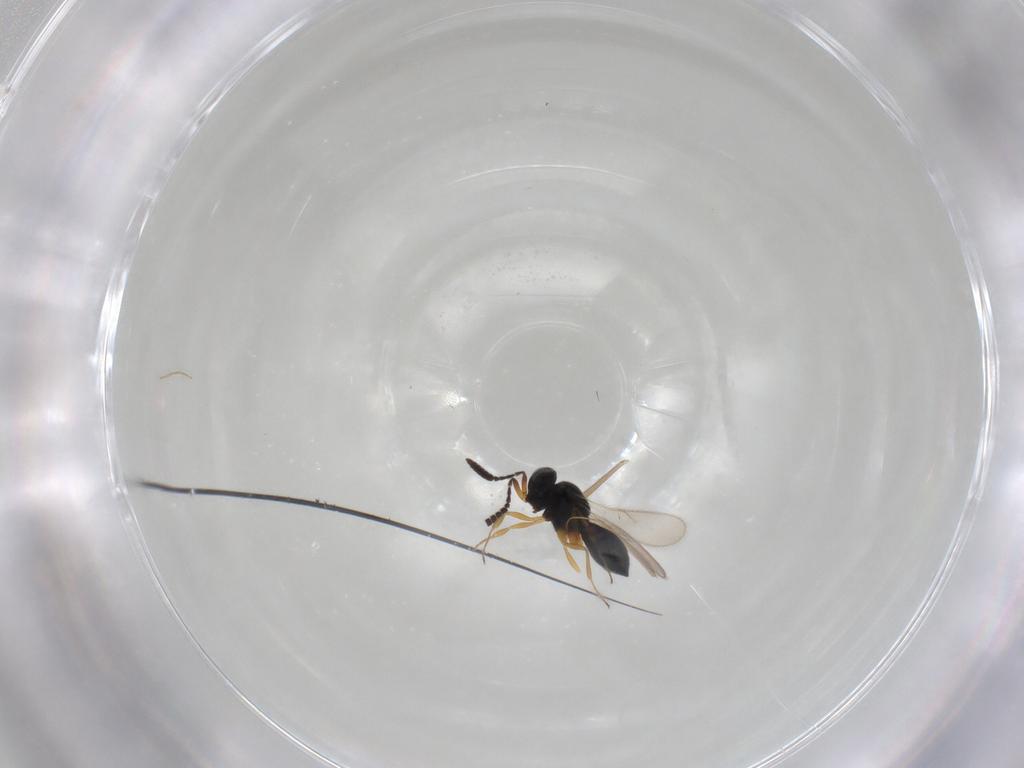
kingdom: Animalia
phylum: Arthropoda
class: Insecta
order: Hymenoptera
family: Scelionidae
